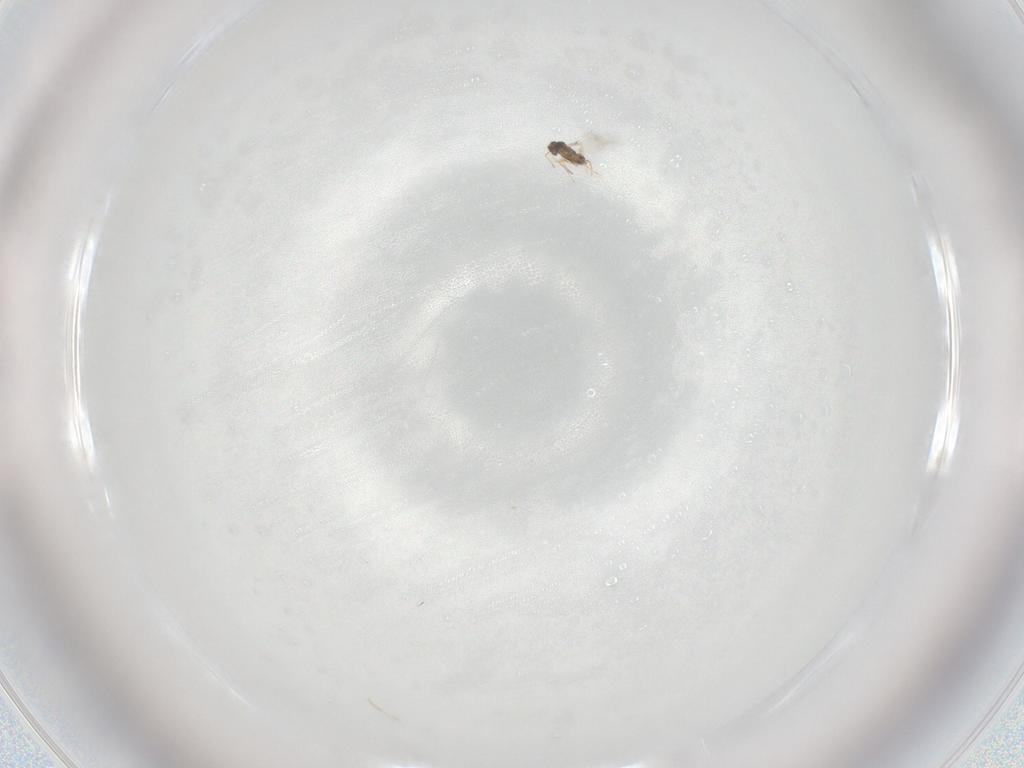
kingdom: Animalia
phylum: Arthropoda
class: Insecta
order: Hymenoptera
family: Mymaridae
